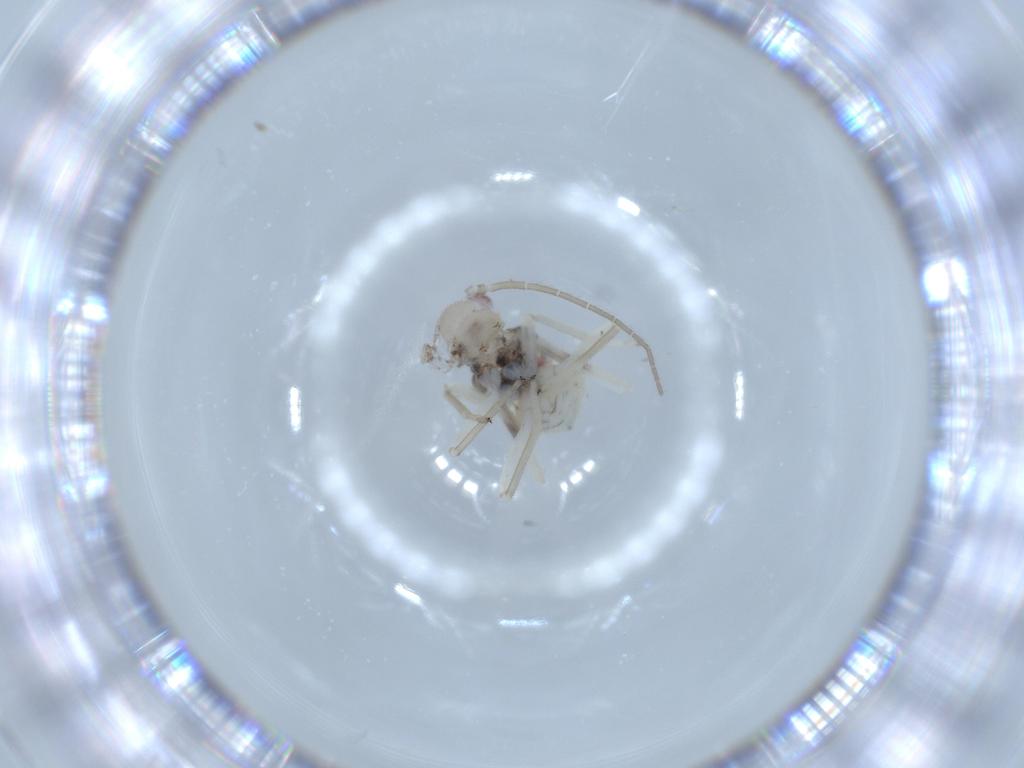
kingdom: Animalia
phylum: Arthropoda
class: Insecta
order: Psocodea
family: Amphipsocidae
